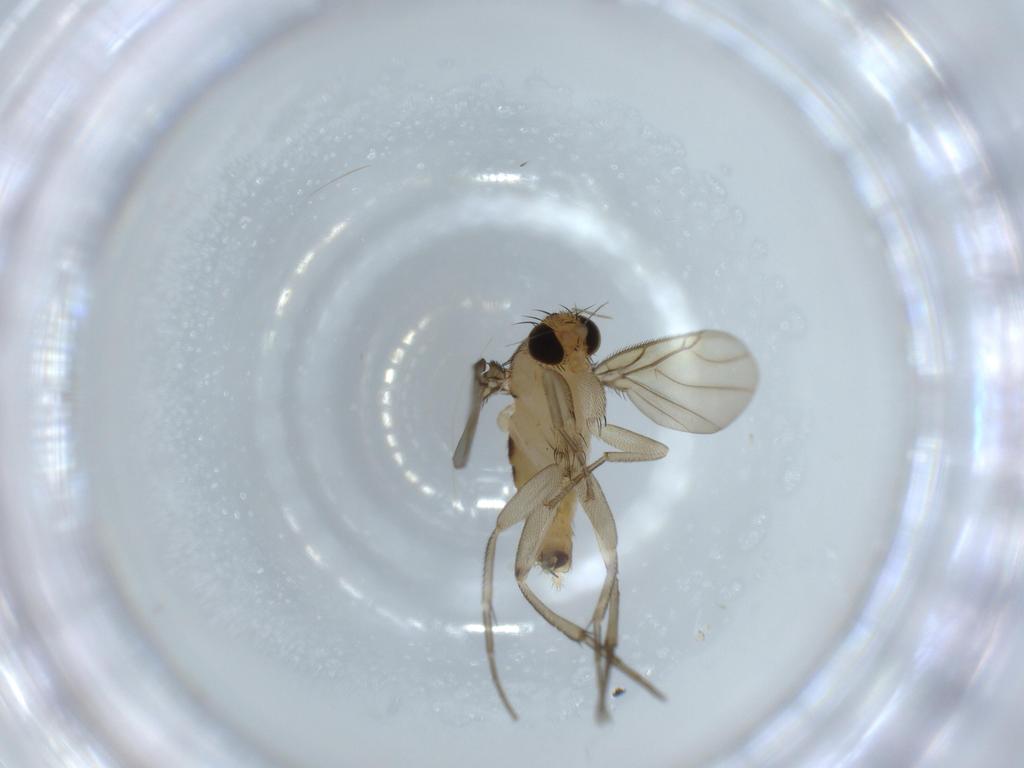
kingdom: Animalia
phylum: Arthropoda
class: Insecta
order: Diptera
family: Phoridae
